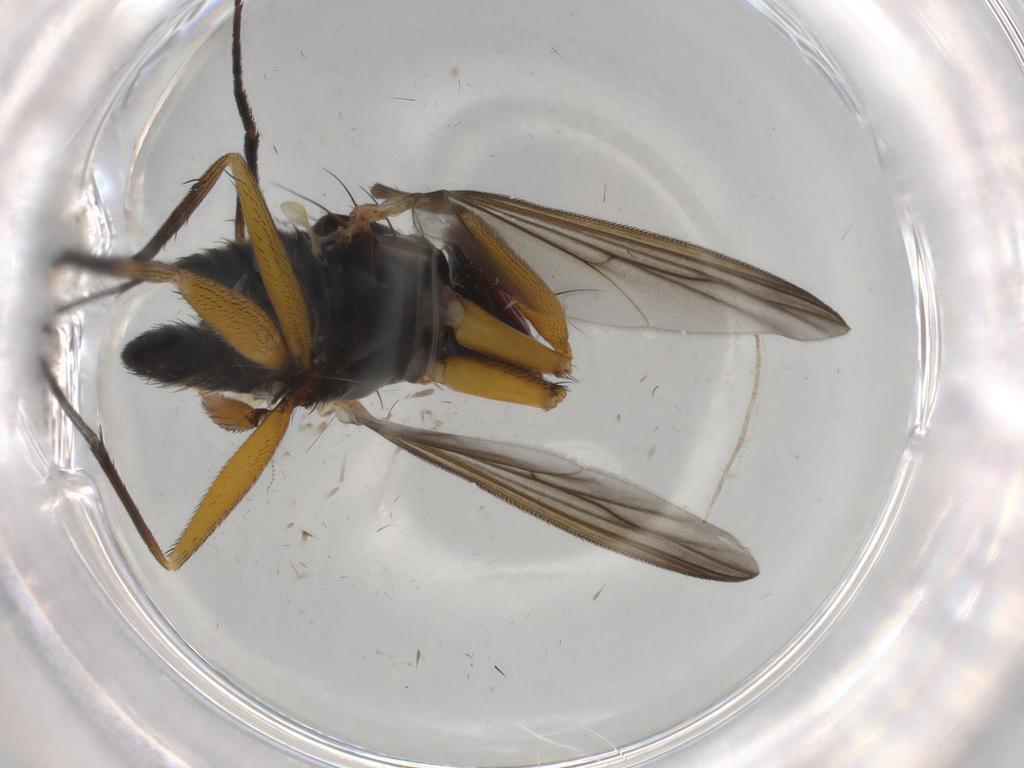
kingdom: Animalia
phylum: Arthropoda
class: Insecta
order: Diptera
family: Dolichopodidae
